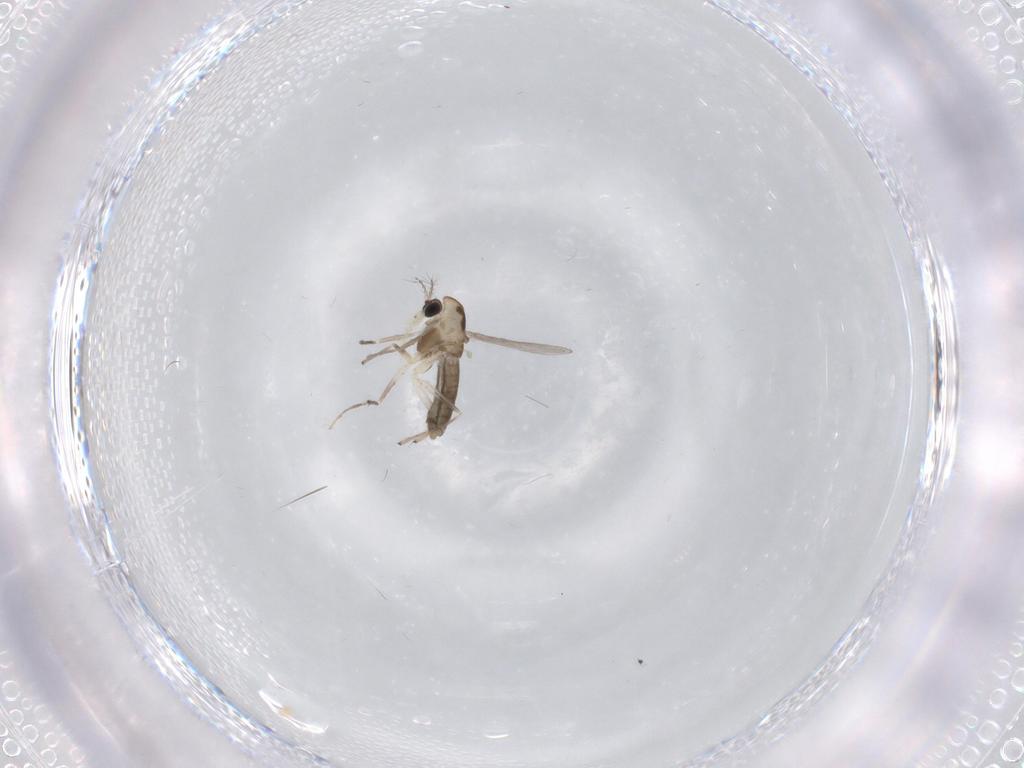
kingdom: Animalia
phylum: Arthropoda
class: Insecta
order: Diptera
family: Chironomidae
